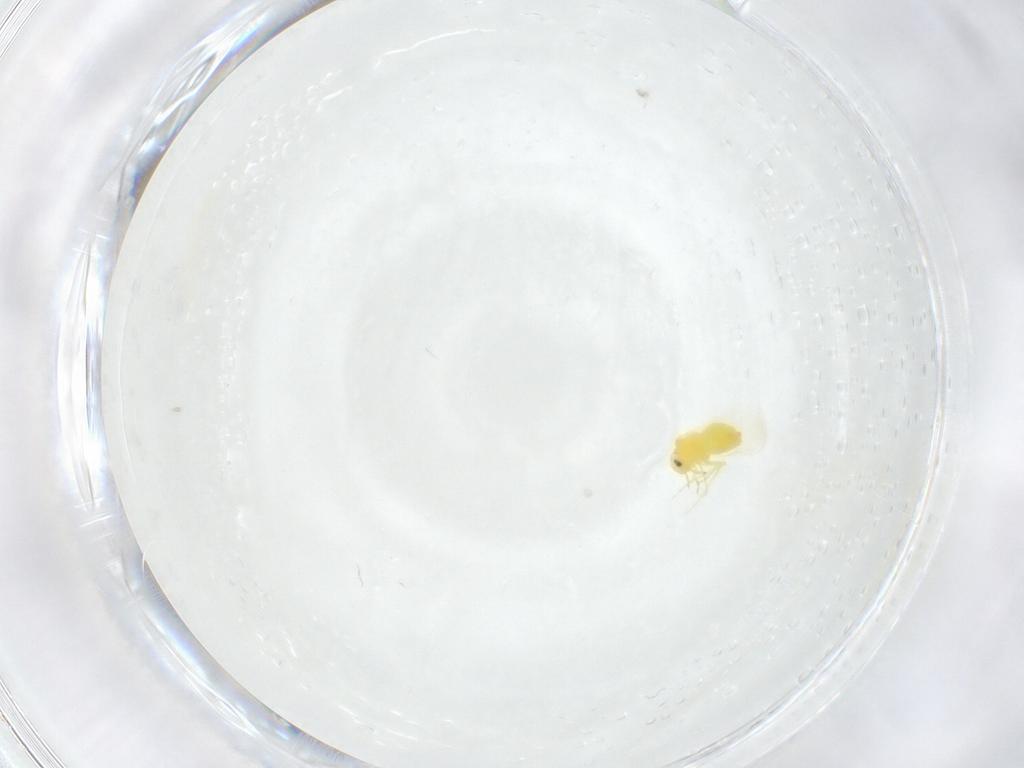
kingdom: Animalia
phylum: Arthropoda
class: Insecta
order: Hemiptera
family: Aleyrodidae
